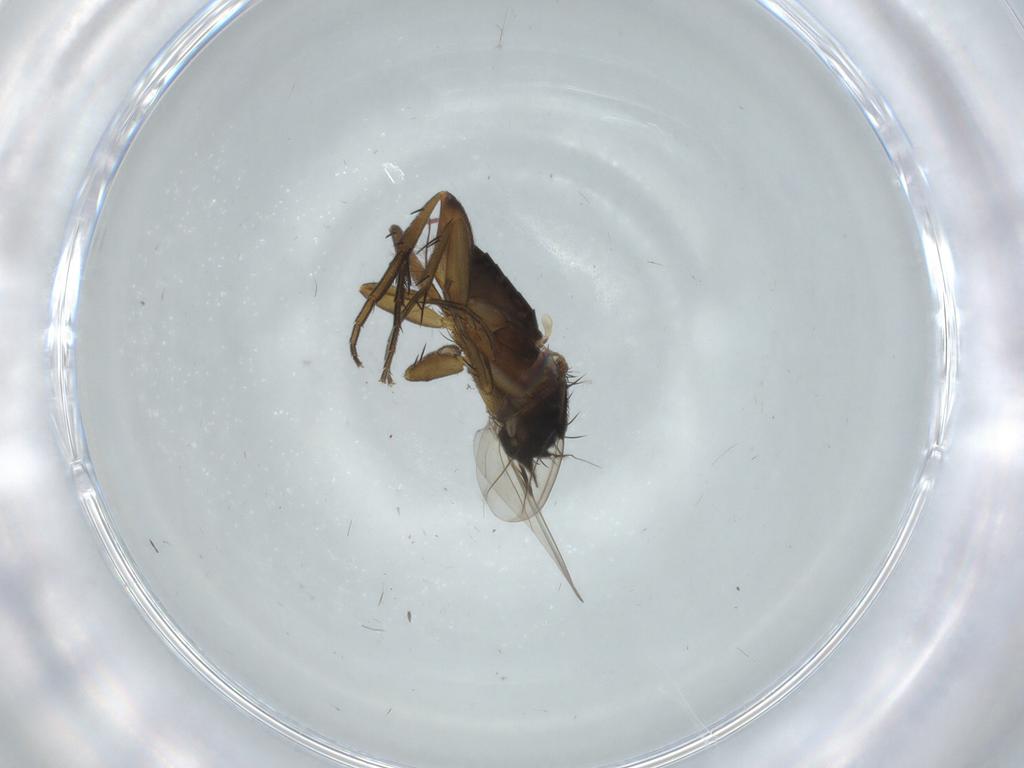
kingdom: Animalia
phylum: Arthropoda
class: Insecta
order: Diptera
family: Phoridae
